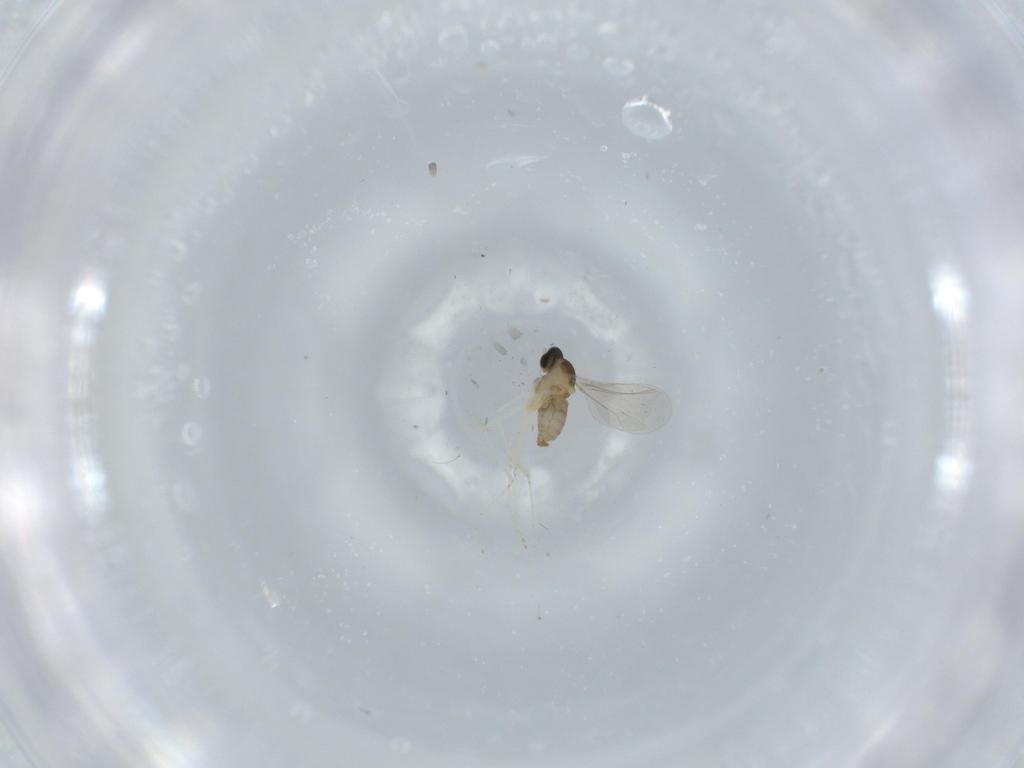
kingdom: Animalia
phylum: Arthropoda
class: Insecta
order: Diptera
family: Cecidomyiidae
